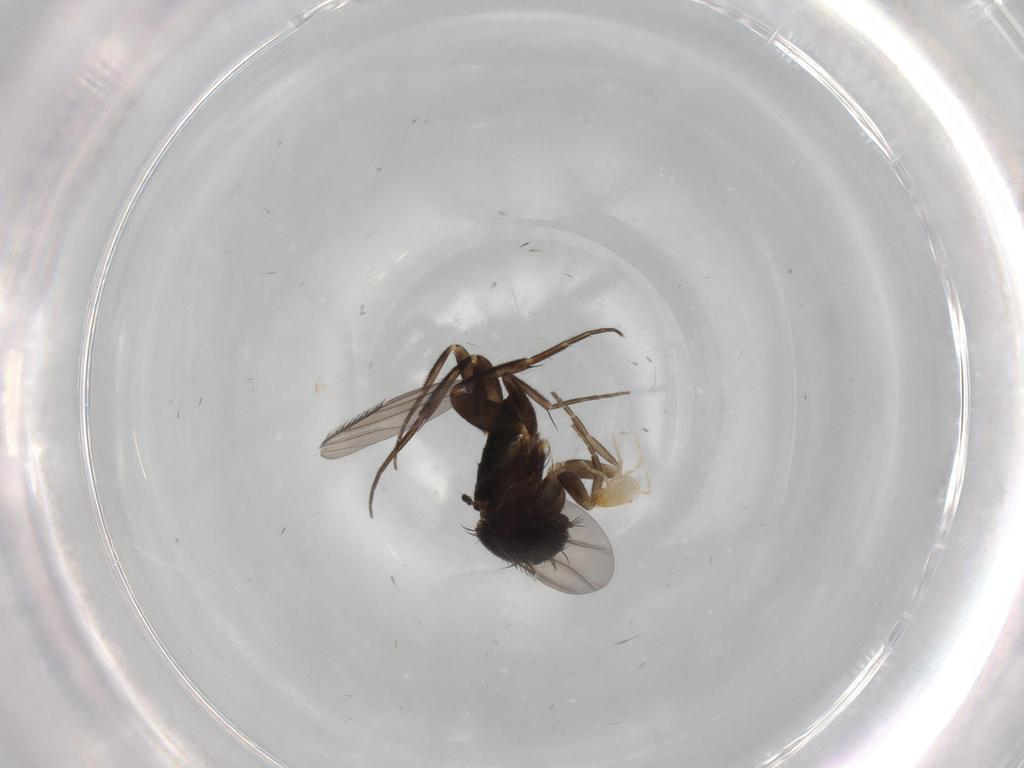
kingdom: Animalia
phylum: Arthropoda
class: Insecta
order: Diptera
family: Phoridae
